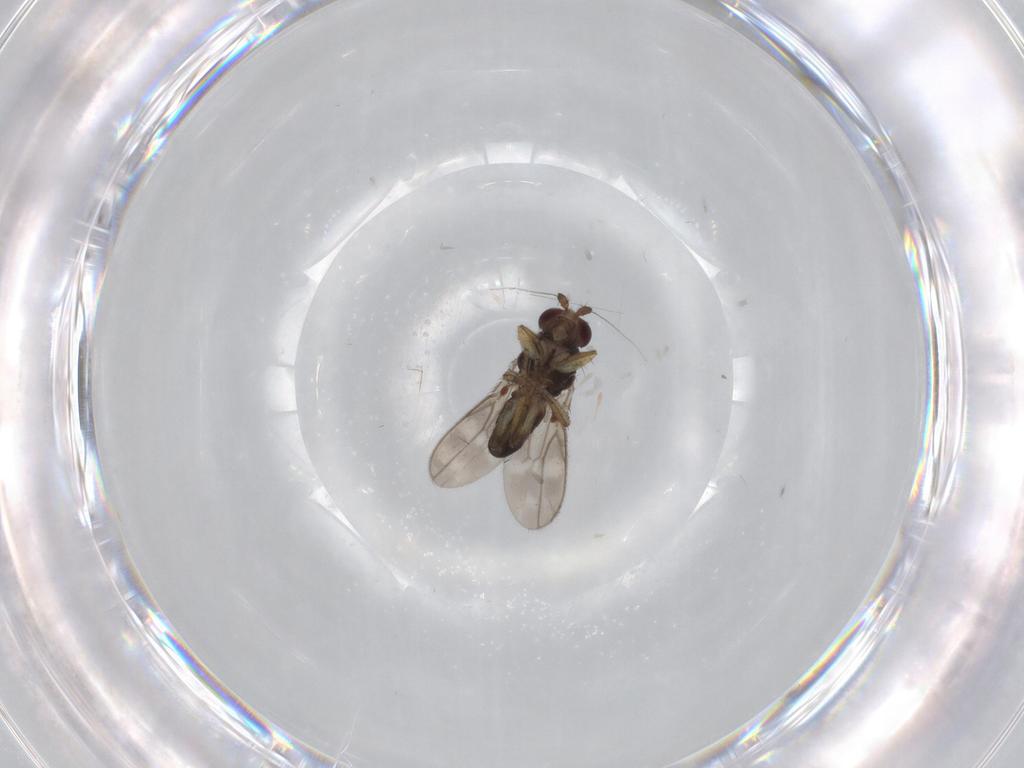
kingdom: Animalia
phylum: Arthropoda
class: Insecta
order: Diptera
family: Sphaeroceridae
